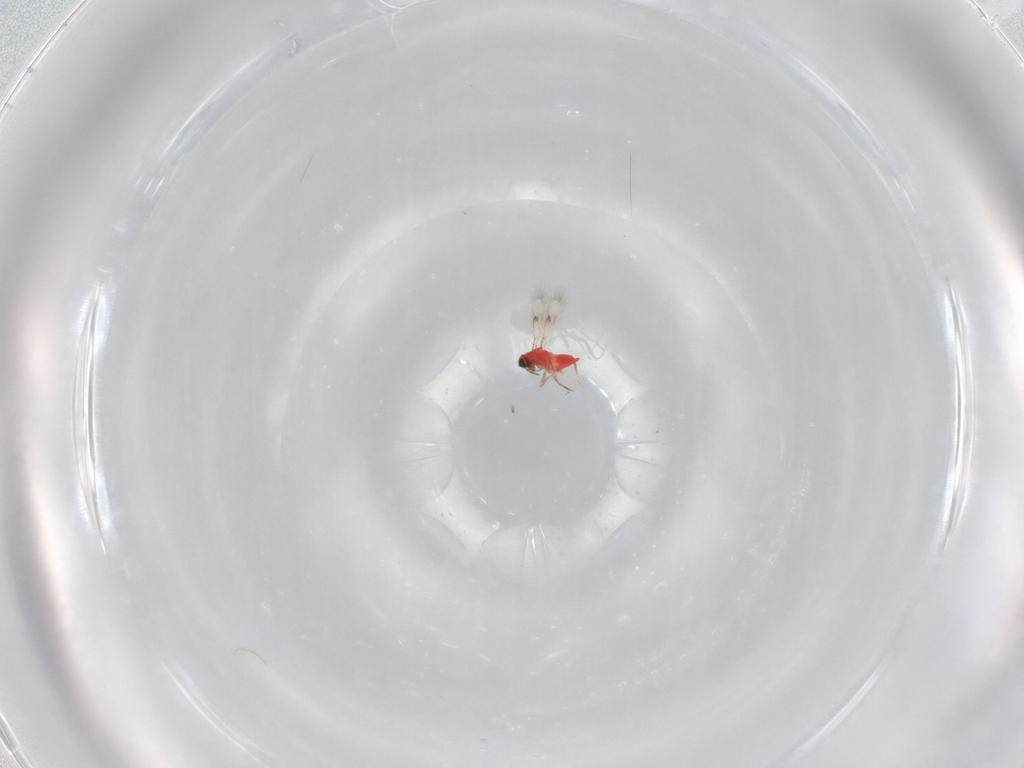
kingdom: Animalia
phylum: Arthropoda
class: Insecta
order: Hymenoptera
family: Trichogrammatidae
